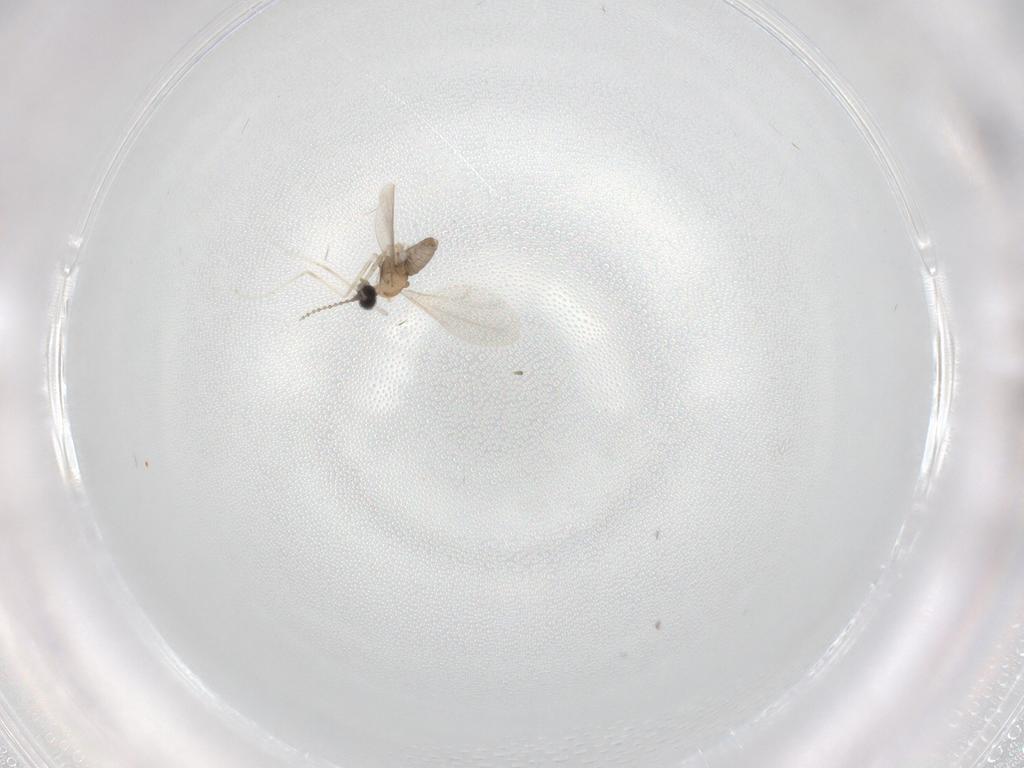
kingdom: Animalia
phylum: Arthropoda
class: Insecta
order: Diptera
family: Cecidomyiidae
